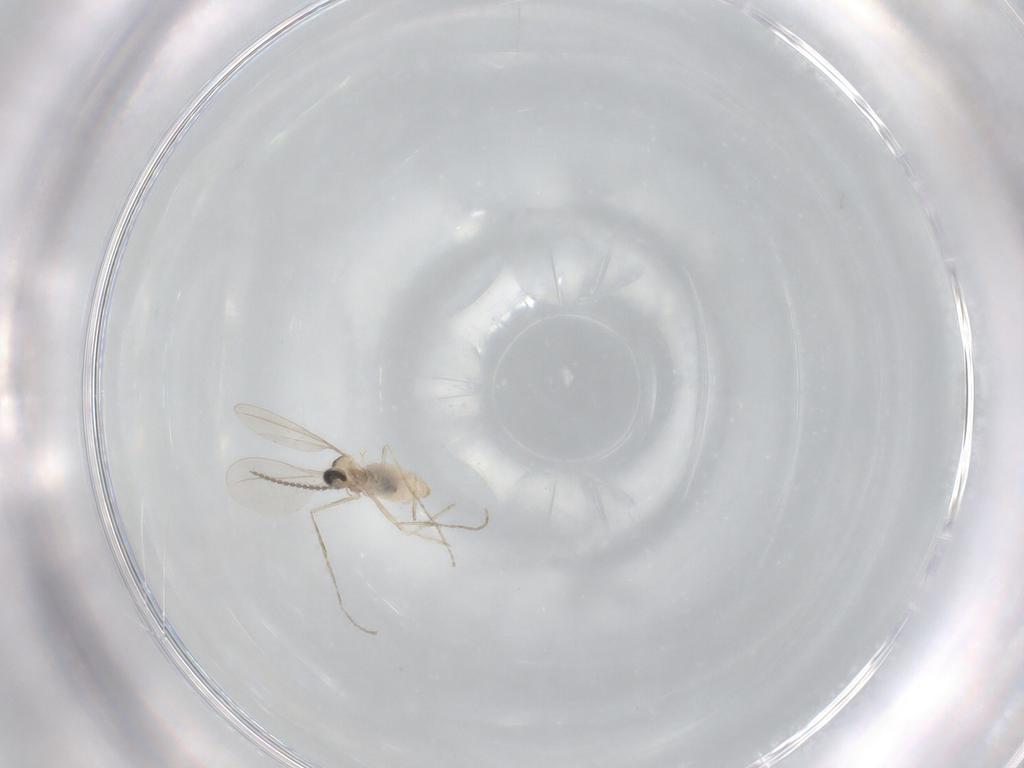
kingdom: Animalia
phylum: Arthropoda
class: Insecta
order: Diptera
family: Cecidomyiidae
